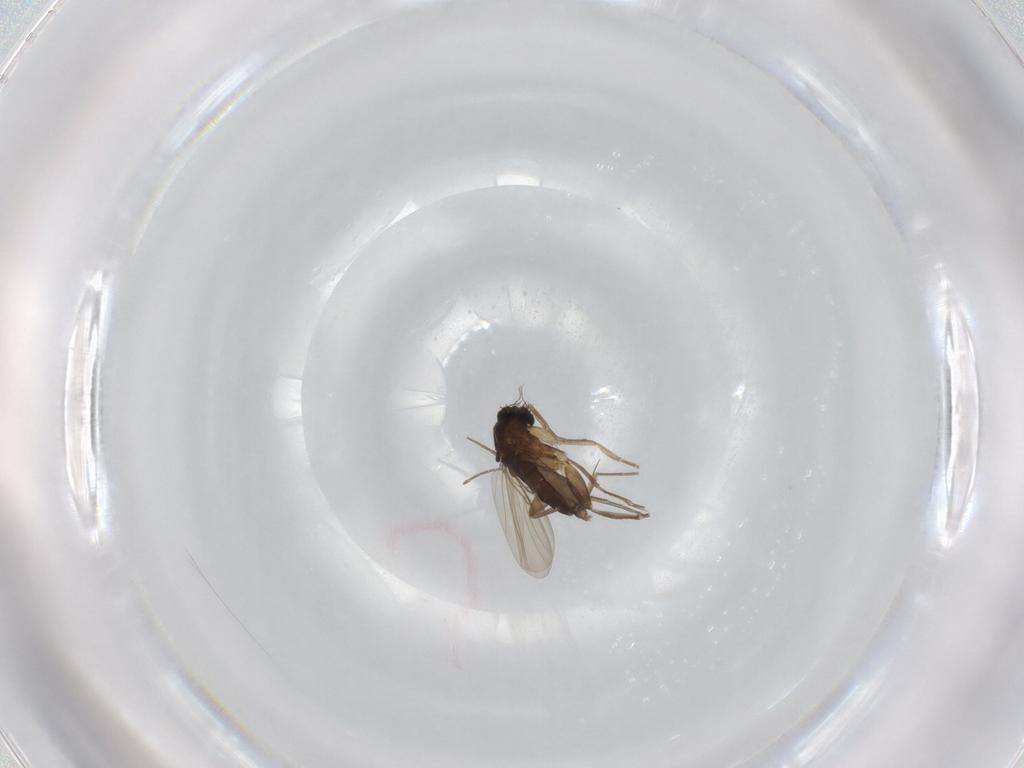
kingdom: Animalia
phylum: Arthropoda
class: Insecta
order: Diptera
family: Phoridae
